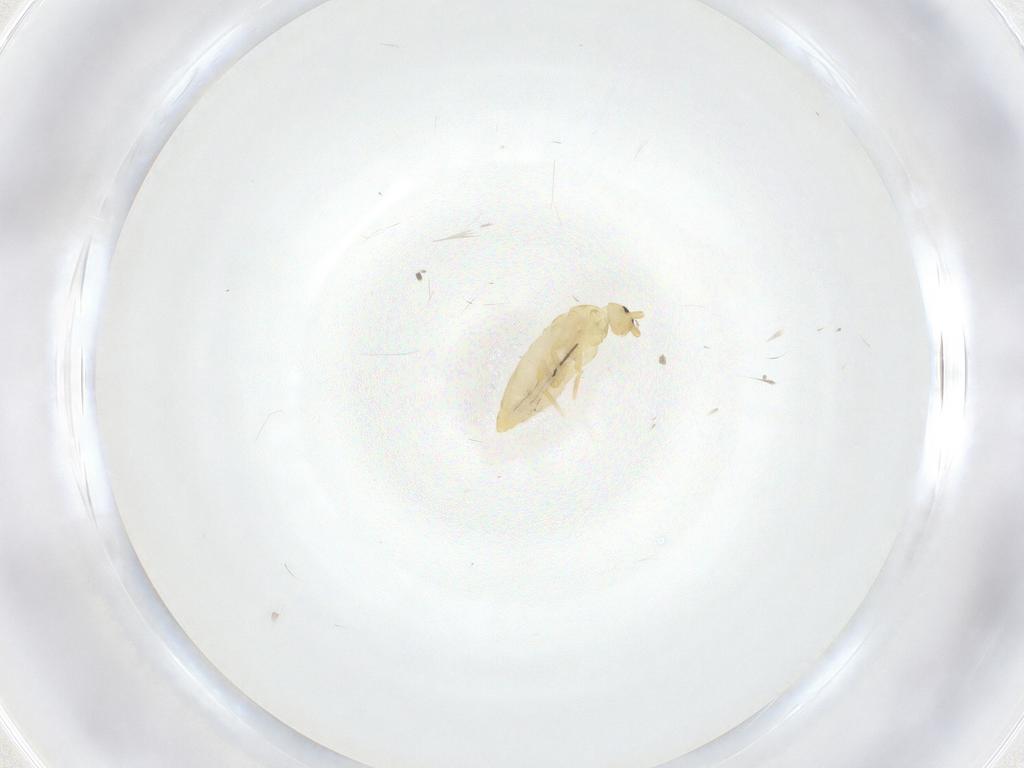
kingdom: Animalia
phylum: Arthropoda
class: Collembola
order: Entomobryomorpha
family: Entomobryidae
